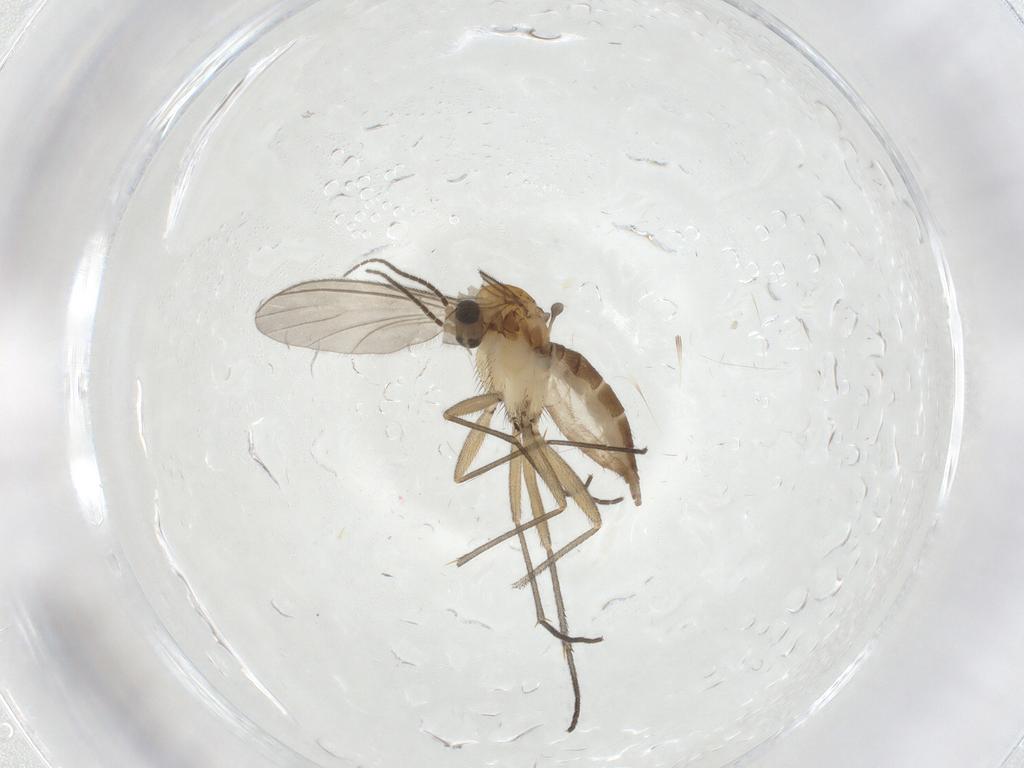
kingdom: Animalia
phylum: Arthropoda
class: Insecta
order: Diptera
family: Sciaridae
